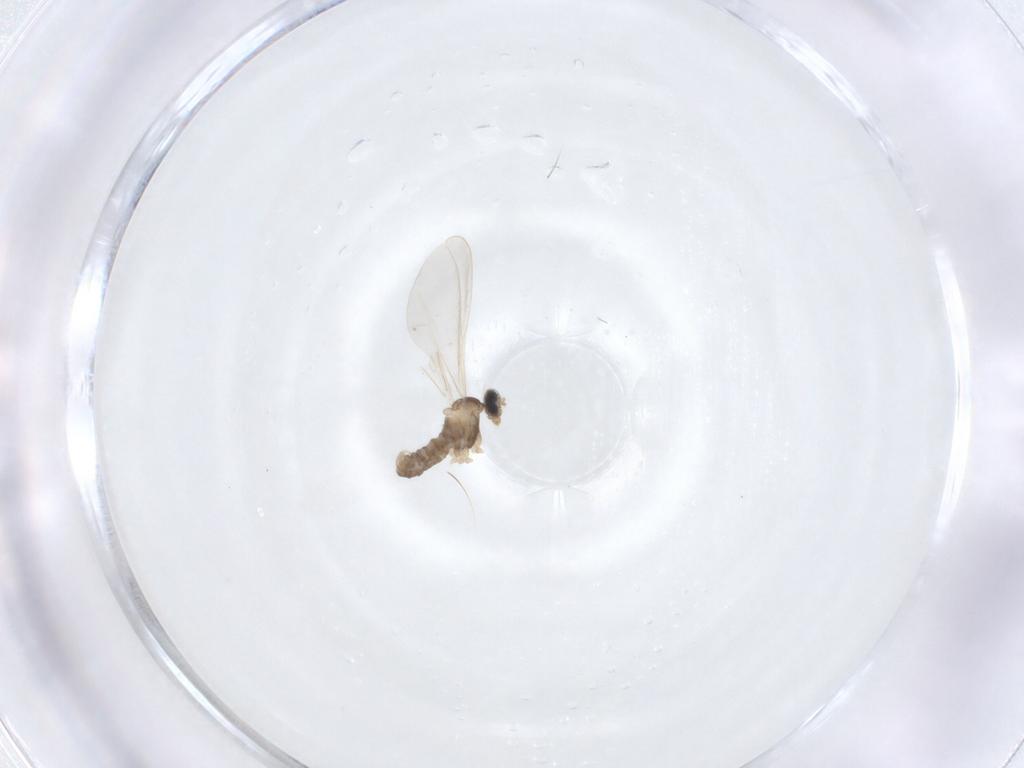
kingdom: Animalia
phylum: Arthropoda
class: Insecta
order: Diptera
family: Cecidomyiidae
